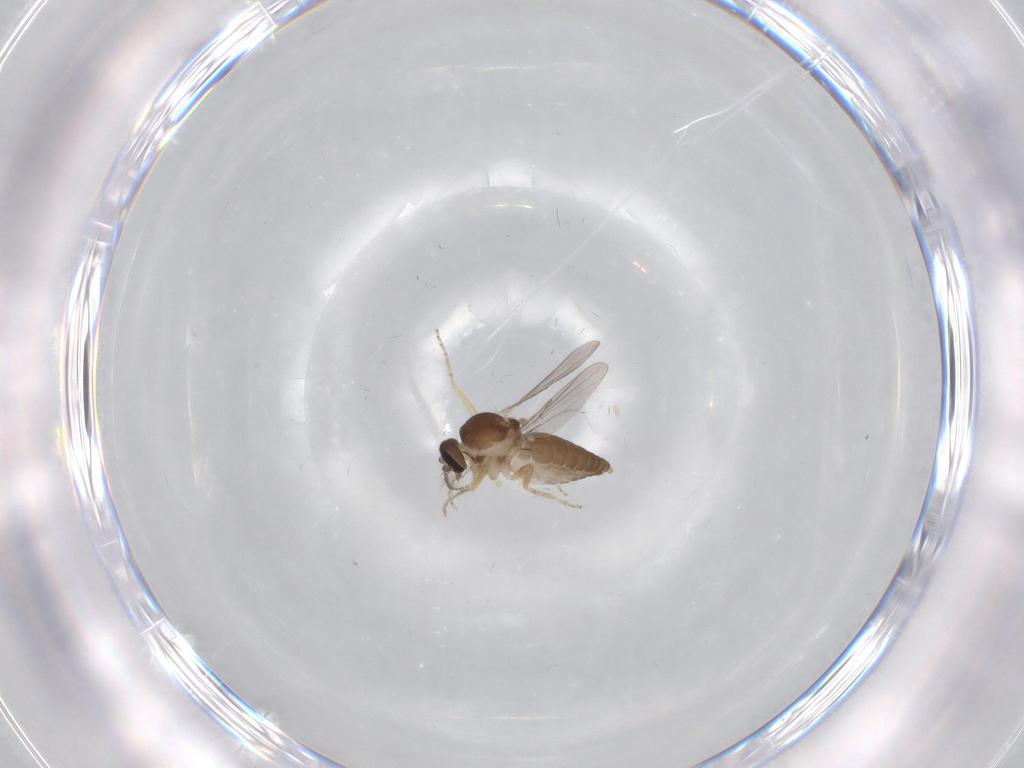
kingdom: Animalia
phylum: Arthropoda
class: Insecta
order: Diptera
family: Ceratopogonidae
